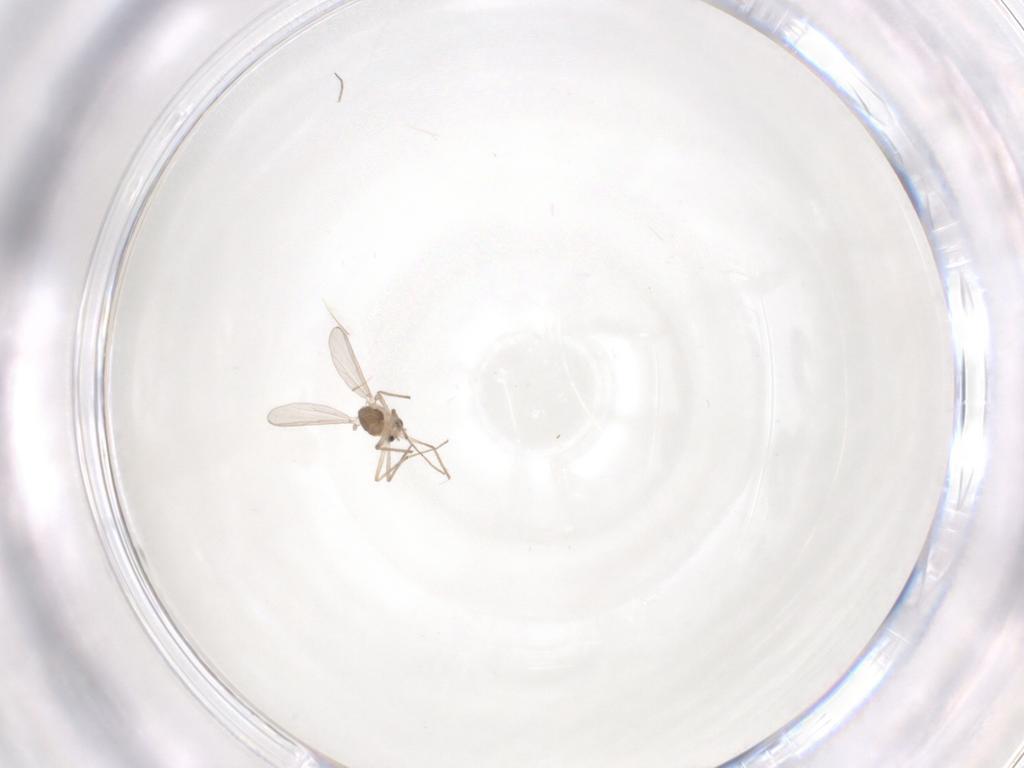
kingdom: Animalia
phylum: Arthropoda
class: Insecta
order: Diptera
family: Chironomidae
